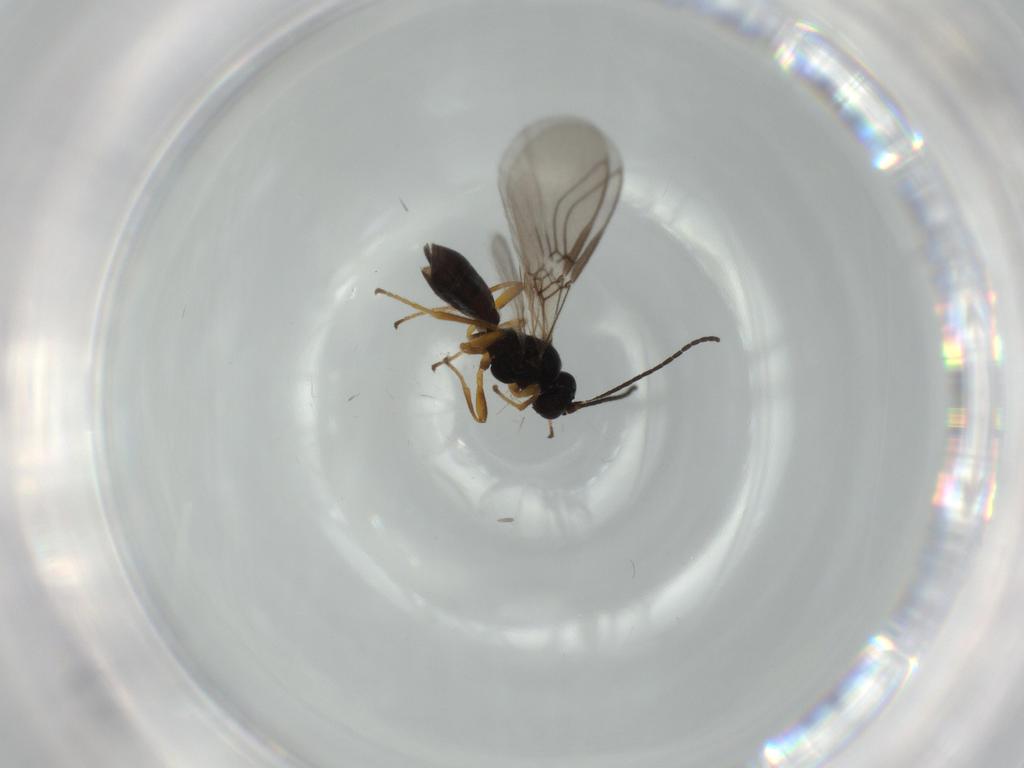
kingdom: Animalia
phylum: Arthropoda
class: Insecta
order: Hymenoptera
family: Braconidae
